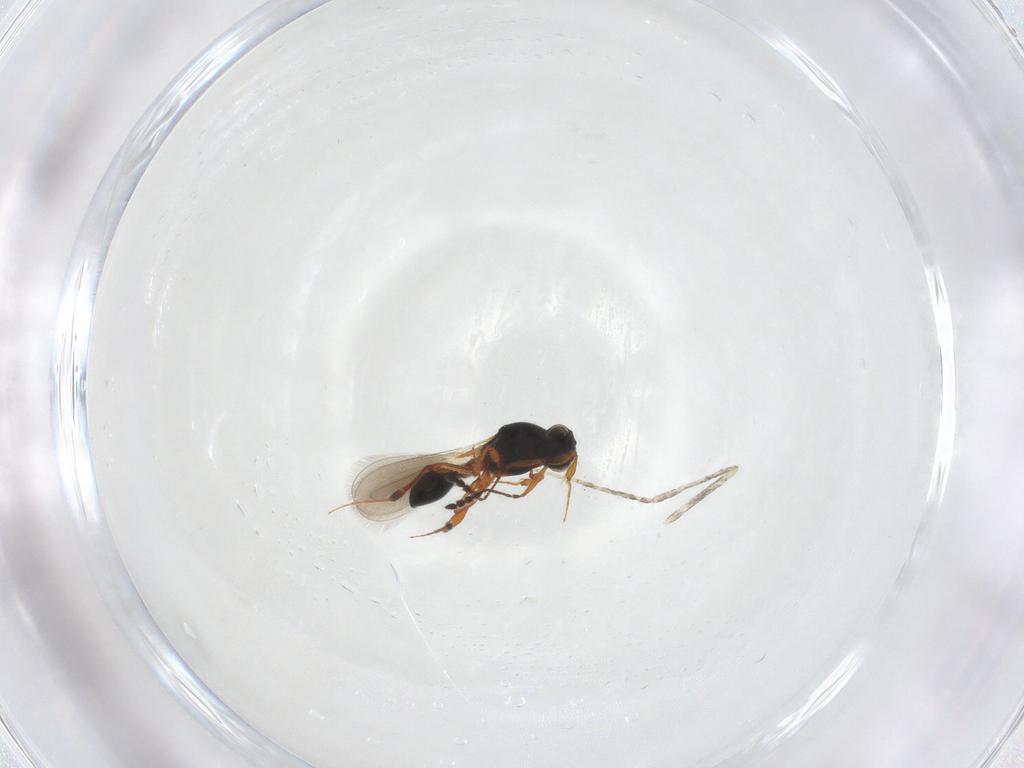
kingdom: Animalia
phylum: Arthropoda
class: Insecta
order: Hymenoptera
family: Platygastridae
